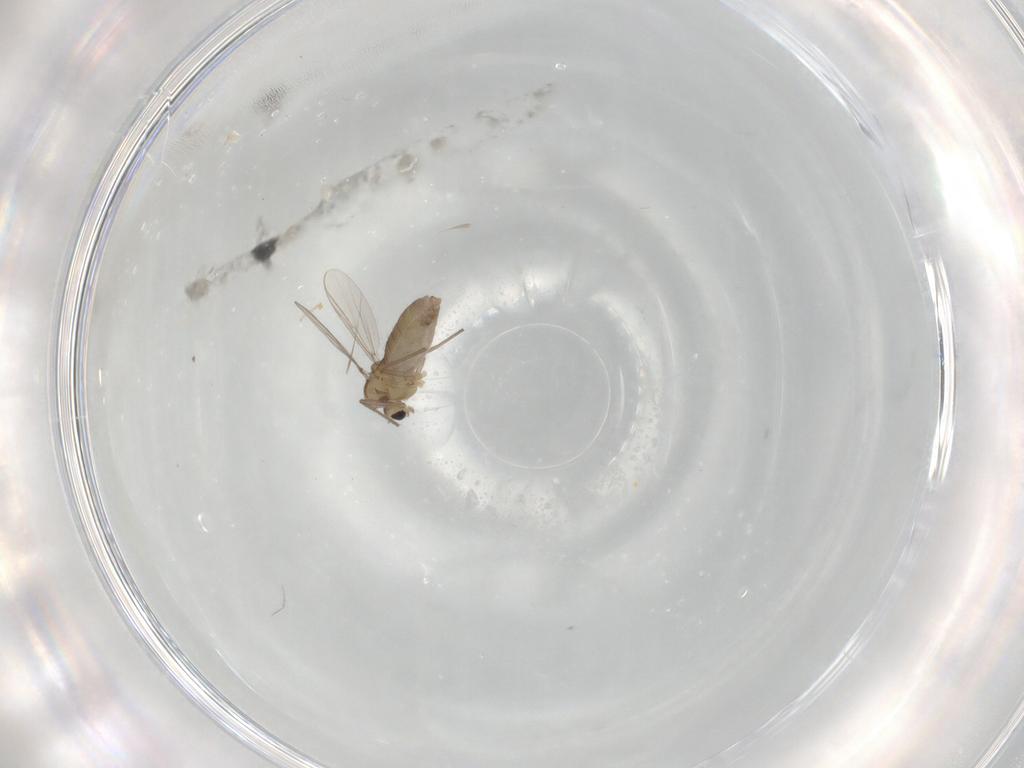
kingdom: Animalia
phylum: Arthropoda
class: Insecta
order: Diptera
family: Chironomidae
